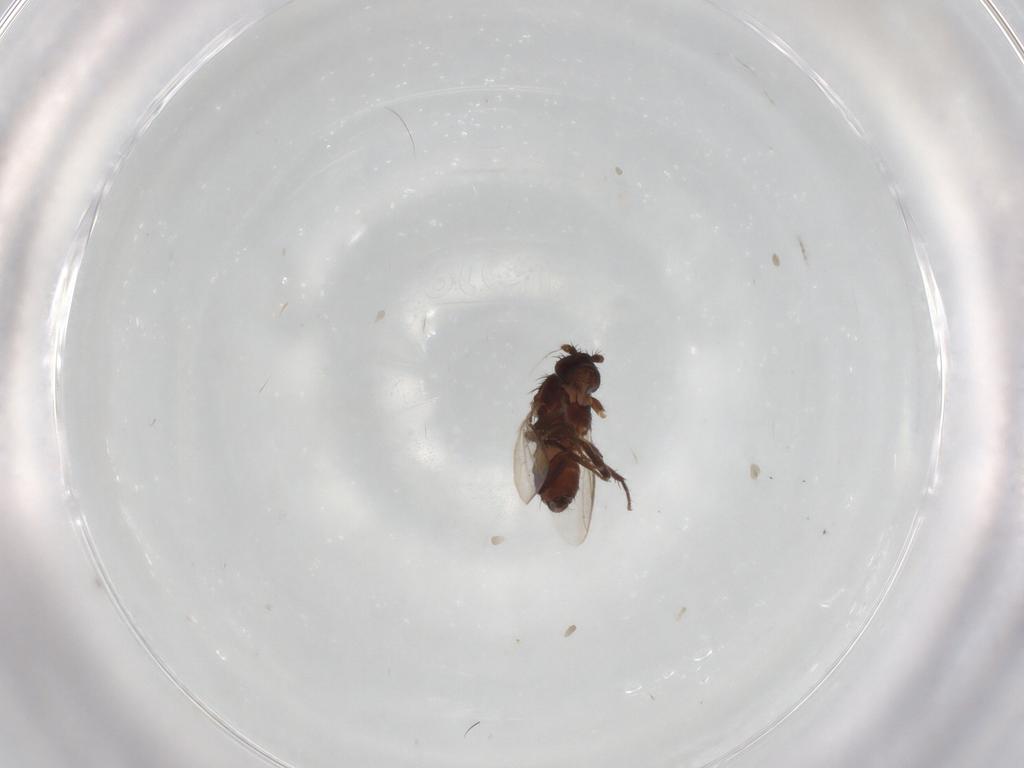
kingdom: Animalia
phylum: Arthropoda
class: Insecta
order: Diptera
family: Sphaeroceridae
